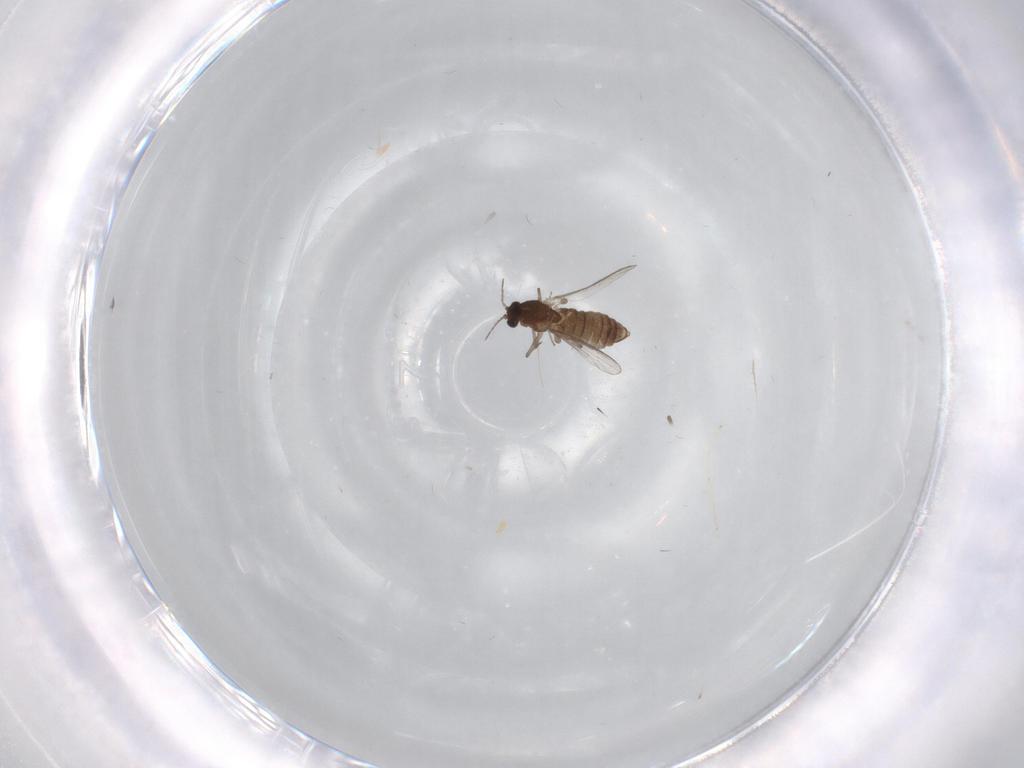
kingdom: Animalia
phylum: Arthropoda
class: Insecta
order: Diptera
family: Chironomidae
